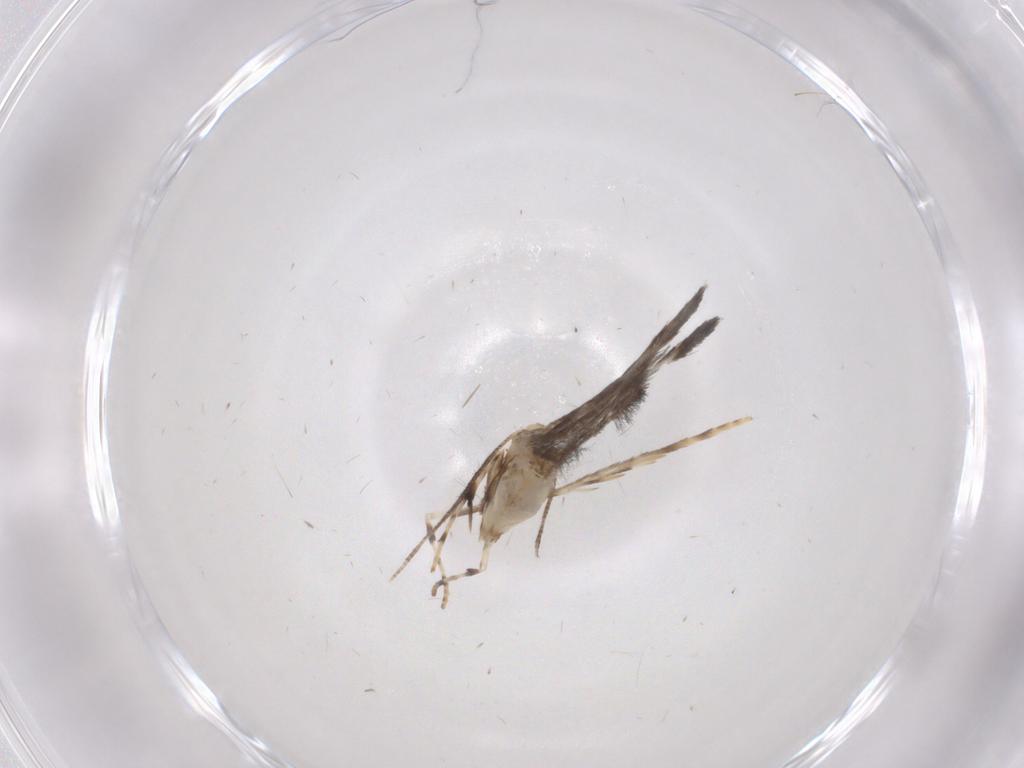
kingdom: Animalia
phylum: Arthropoda
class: Insecta
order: Lepidoptera
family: Gracillariidae
